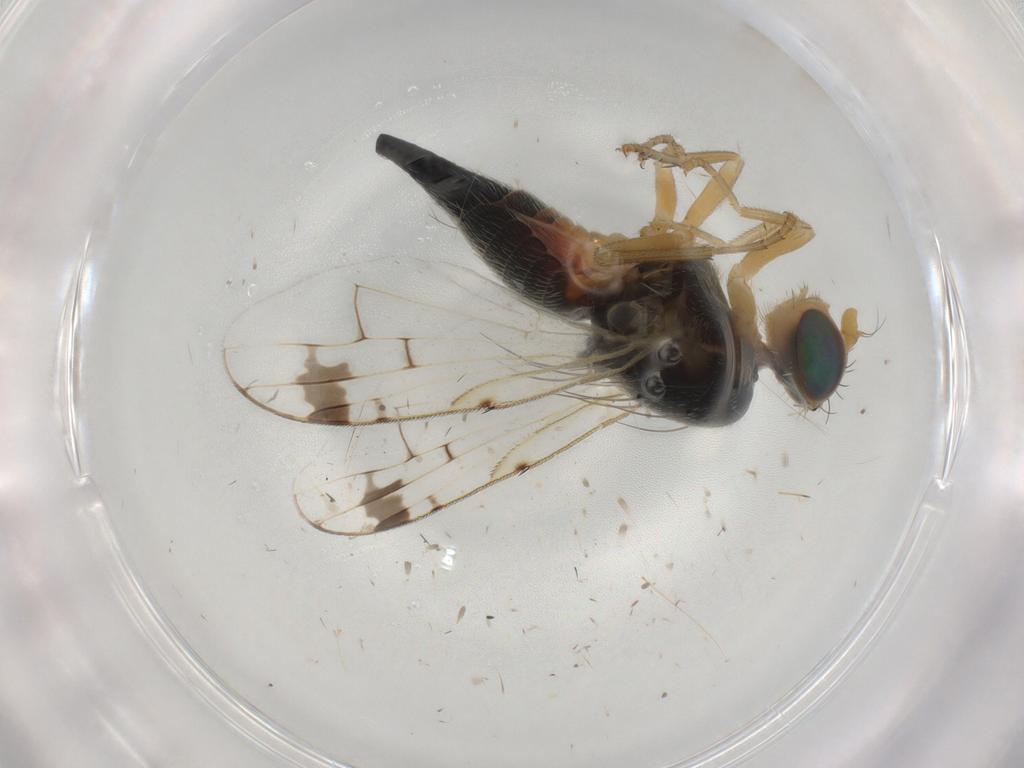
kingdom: Animalia
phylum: Arthropoda
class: Insecta
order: Diptera
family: Tephritidae
